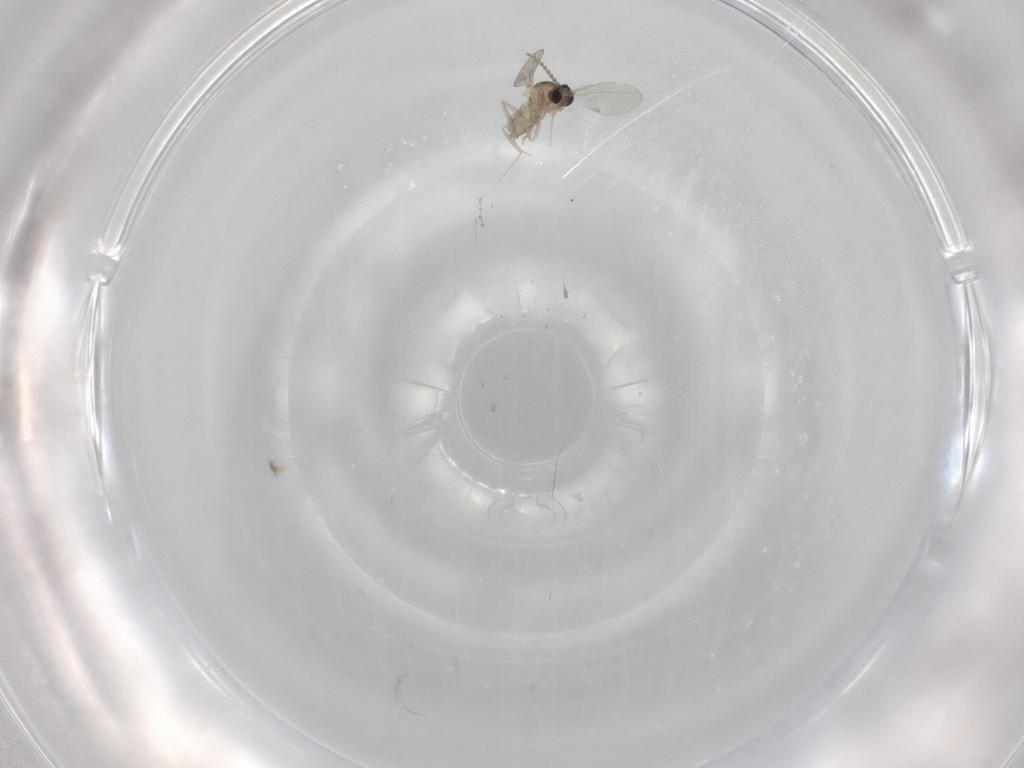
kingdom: Animalia
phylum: Arthropoda
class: Insecta
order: Diptera
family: Cecidomyiidae
